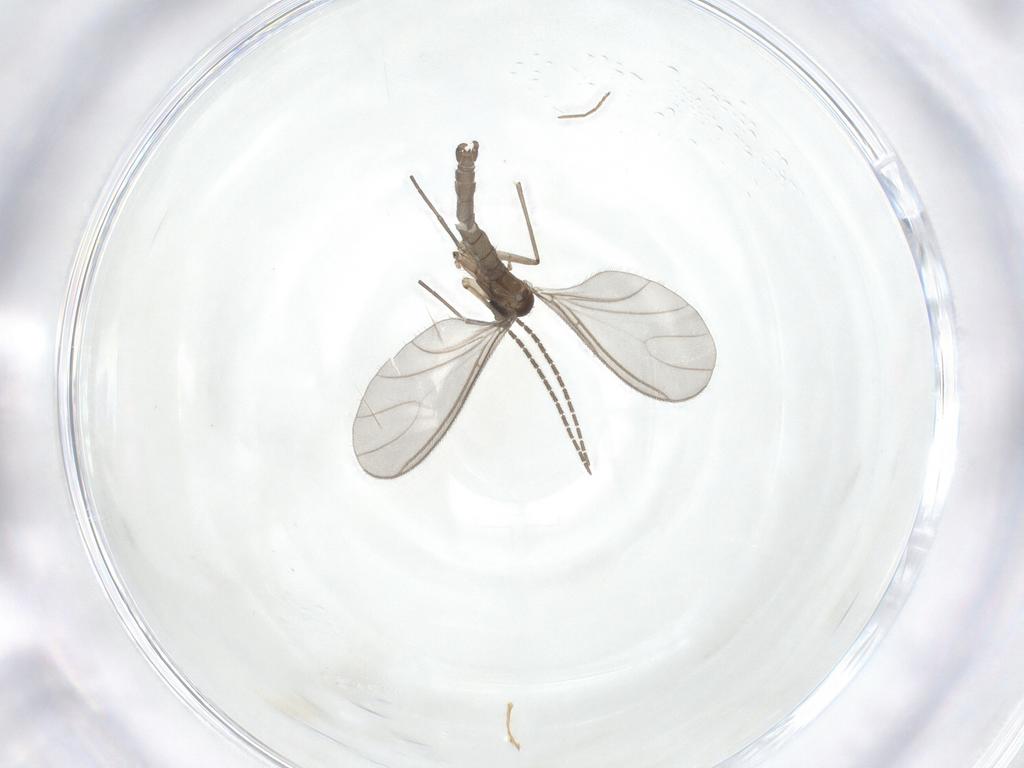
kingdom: Animalia
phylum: Arthropoda
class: Insecta
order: Diptera
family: Sciaridae
